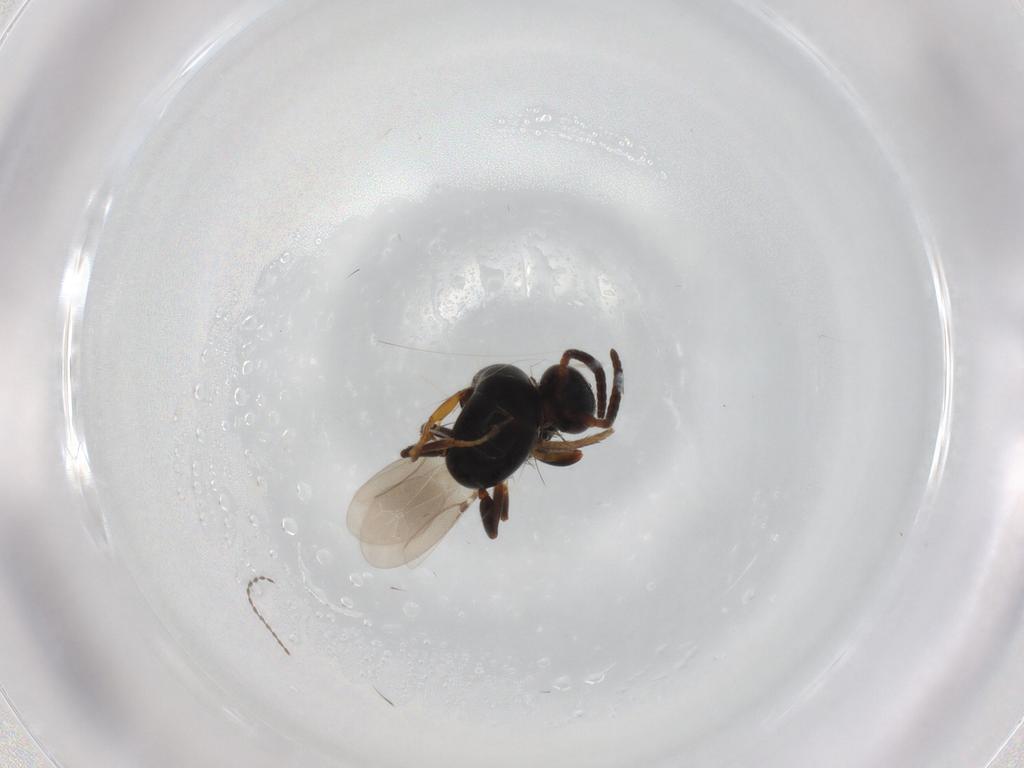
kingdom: Animalia
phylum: Arthropoda
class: Insecta
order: Hymenoptera
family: Bethylidae
